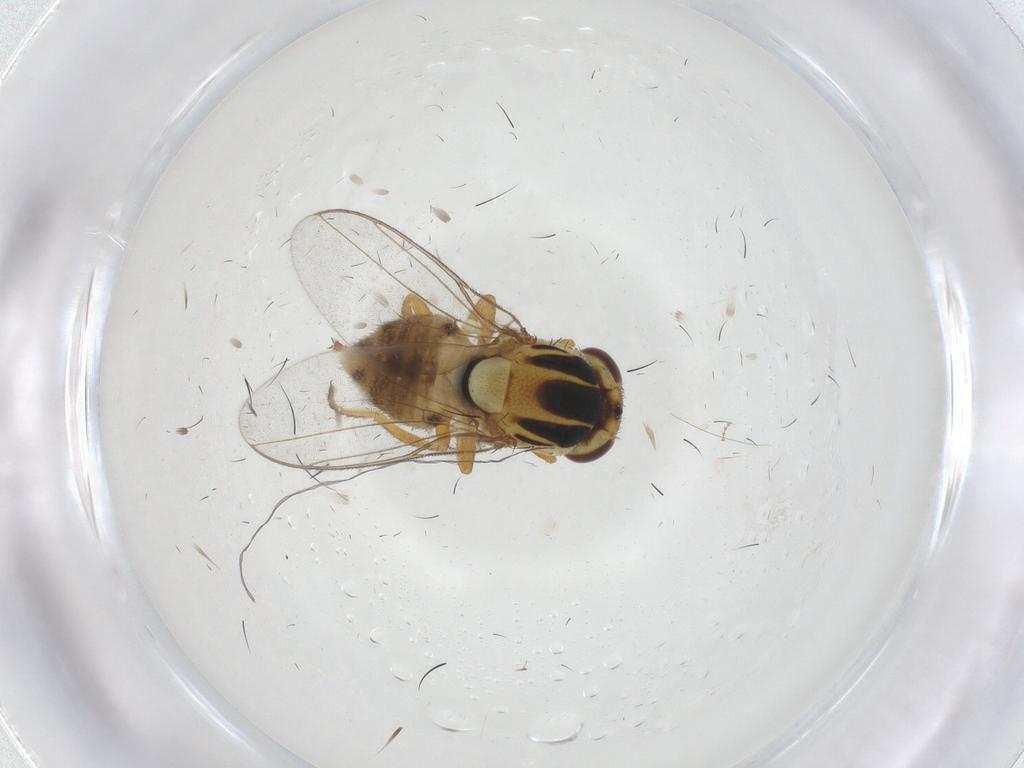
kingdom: Animalia
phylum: Arthropoda
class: Insecta
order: Diptera
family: Chloropidae
